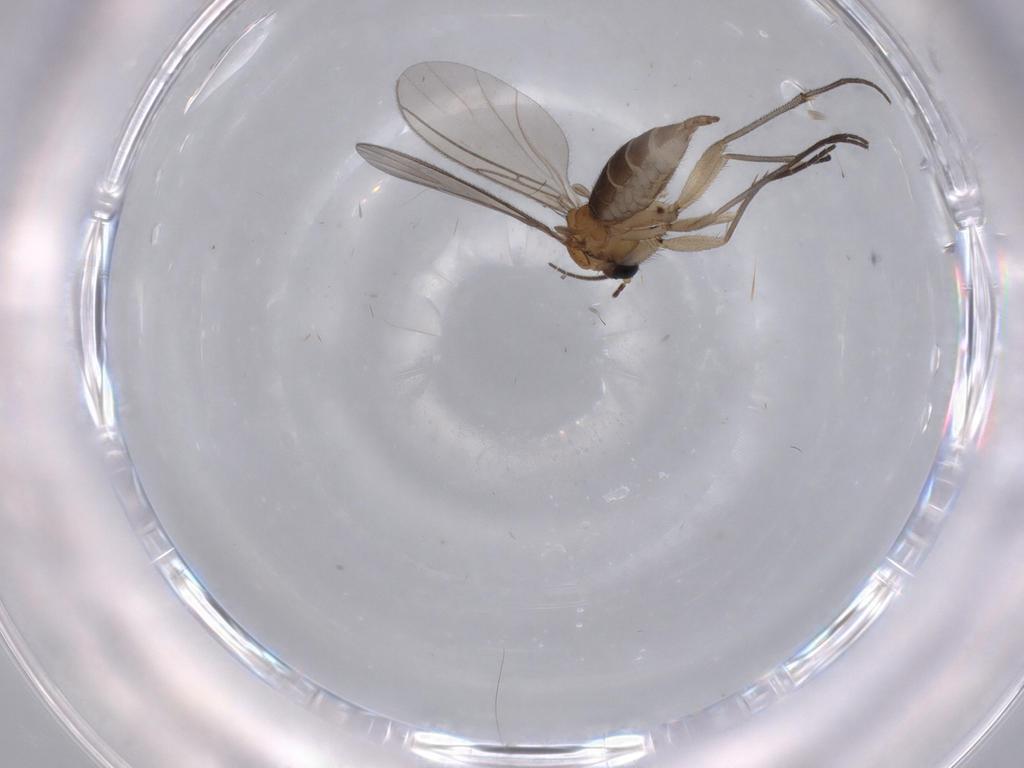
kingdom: Animalia
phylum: Arthropoda
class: Insecta
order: Diptera
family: Sciaridae
